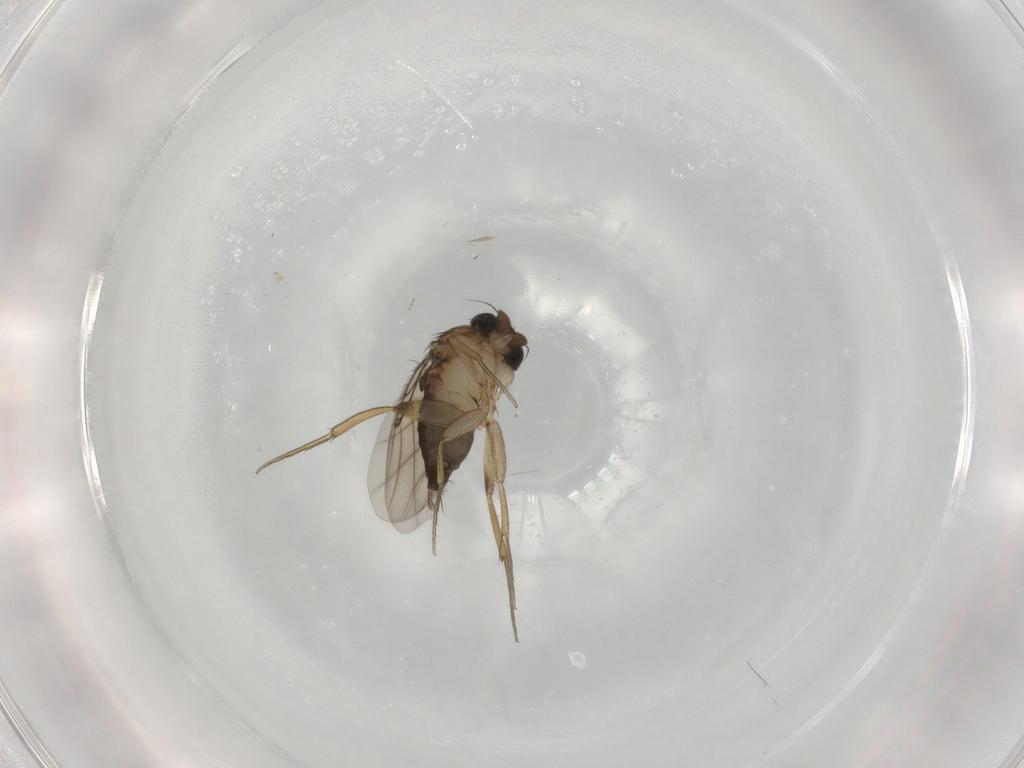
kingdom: Animalia
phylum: Arthropoda
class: Insecta
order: Diptera
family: Phoridae
